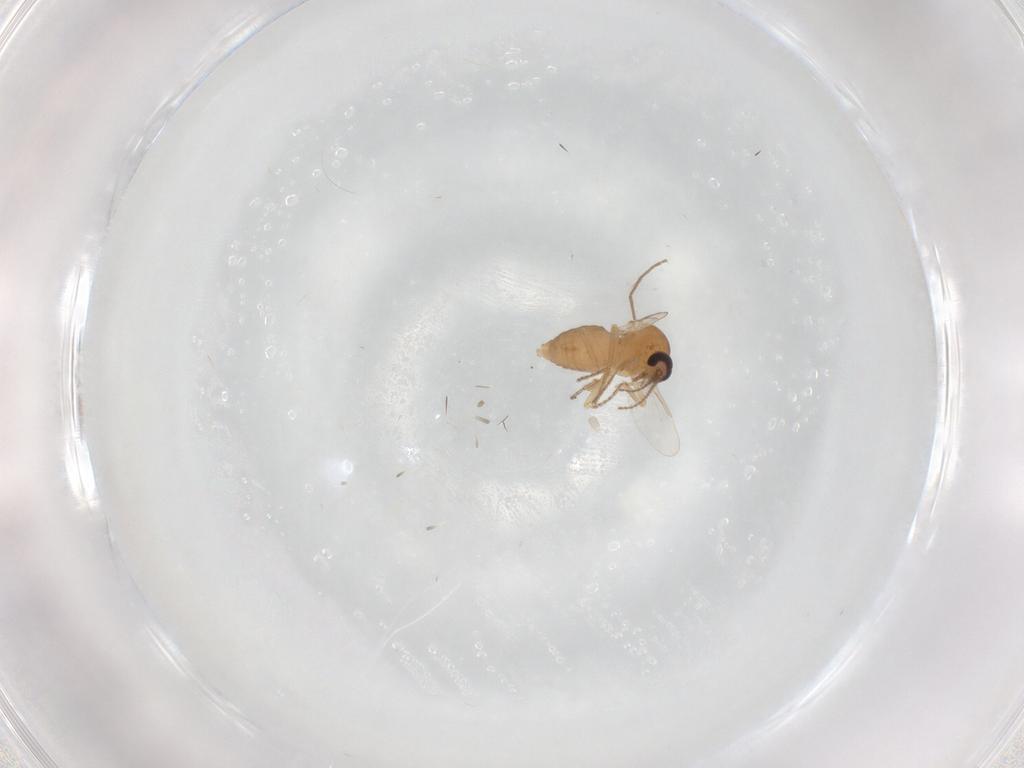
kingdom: Animalia
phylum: Arthropoda
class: Insecta
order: Diptera
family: Ceratopogonidae
